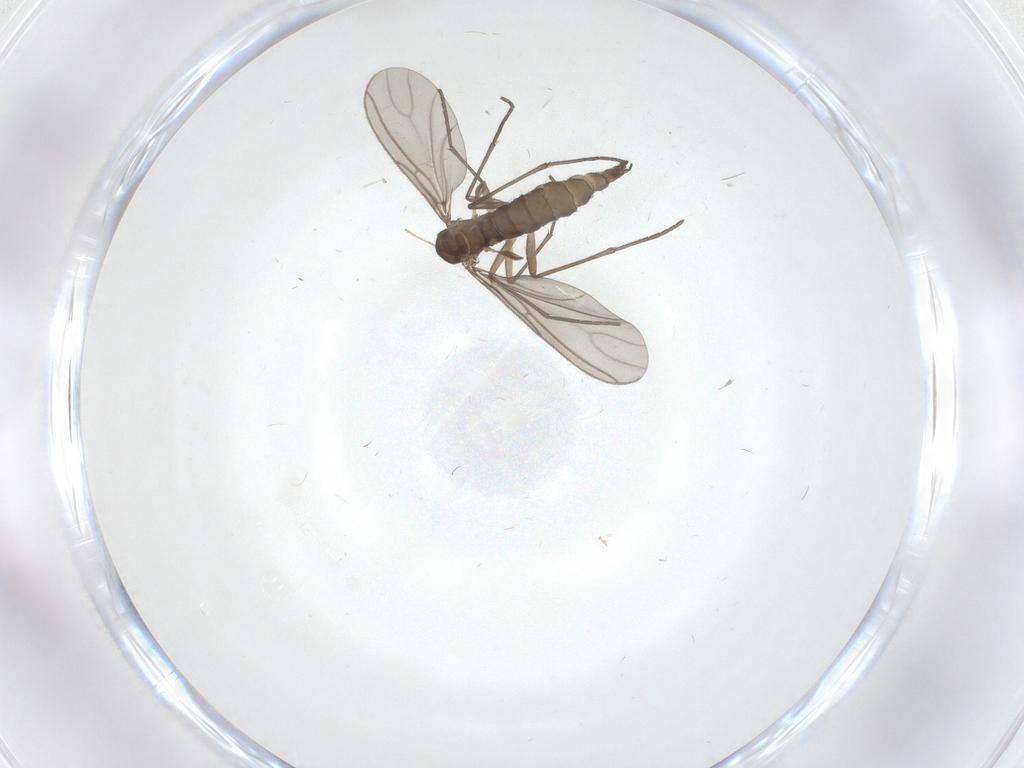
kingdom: Animalia
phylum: Arthropoda
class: Insecta
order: Diptera
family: Sciaridae
